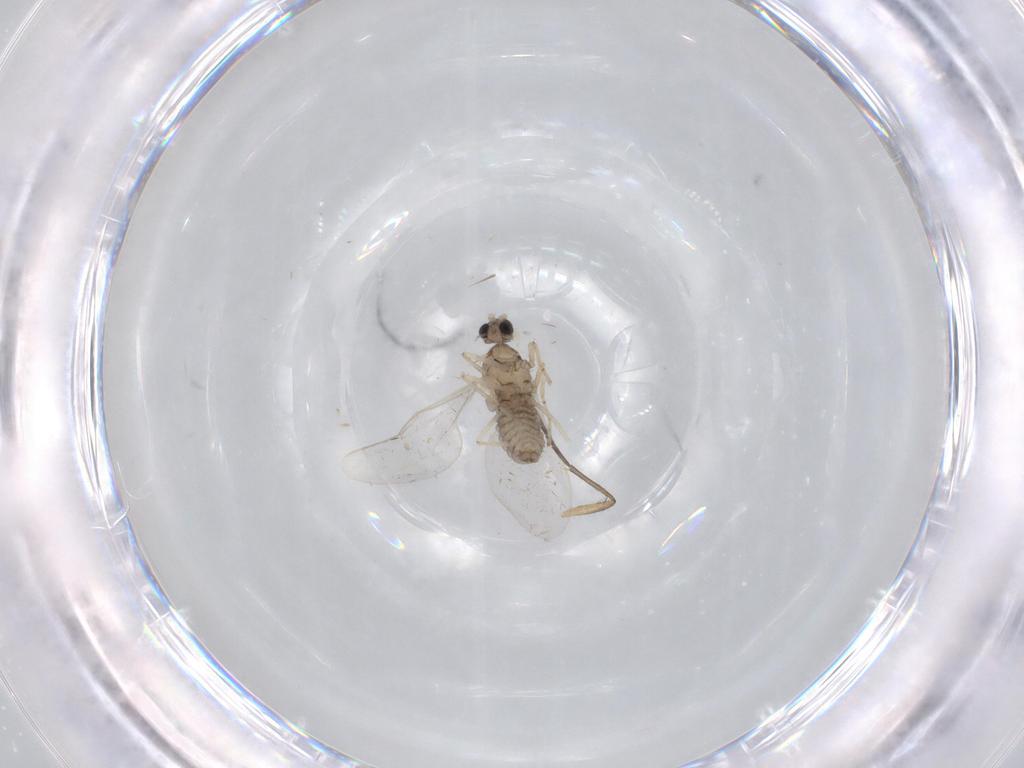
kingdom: Animalia
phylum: Arthropoda
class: Insecta
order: Diptera
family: Cecidomyiidae
